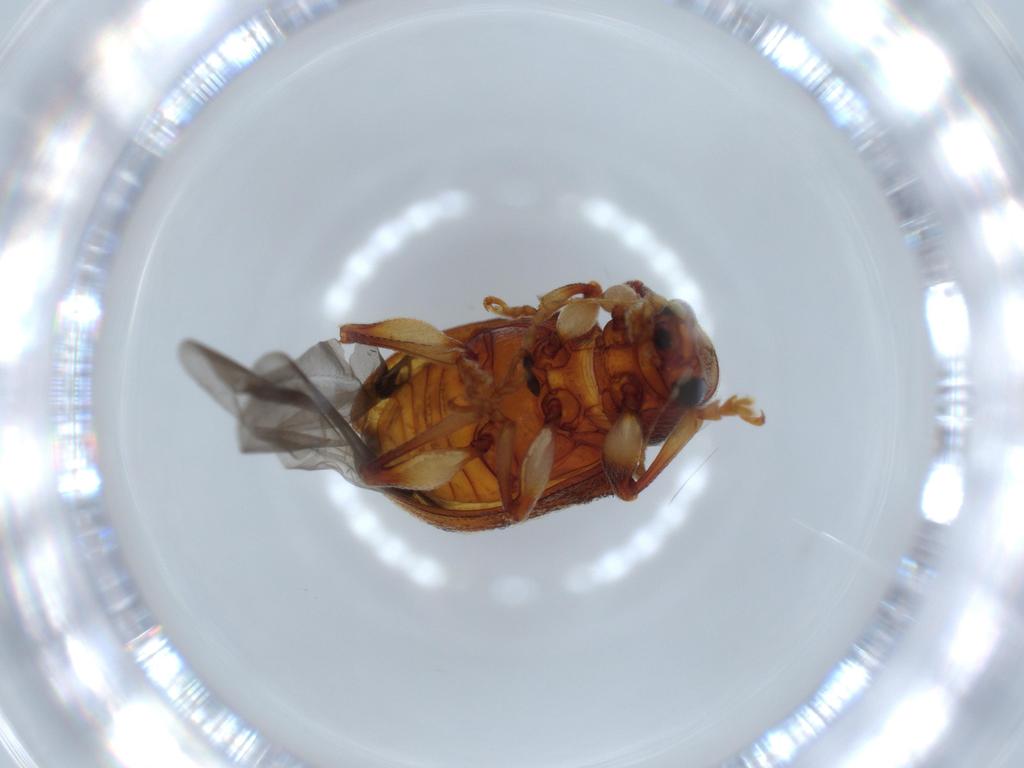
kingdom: Animalia
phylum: Arthropoda
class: Insecta
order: Coleoptera
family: Chrysomelidae
